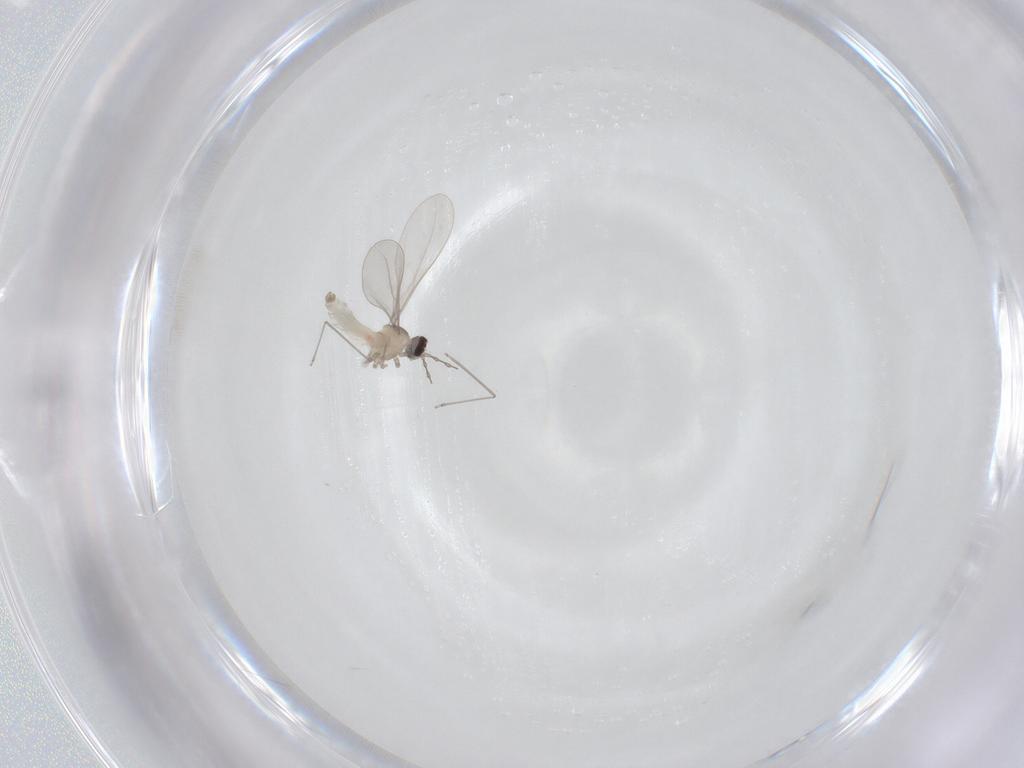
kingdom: Animalia
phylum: Arthropoda
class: Insecta
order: Diptera
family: Cecidomyiidae
